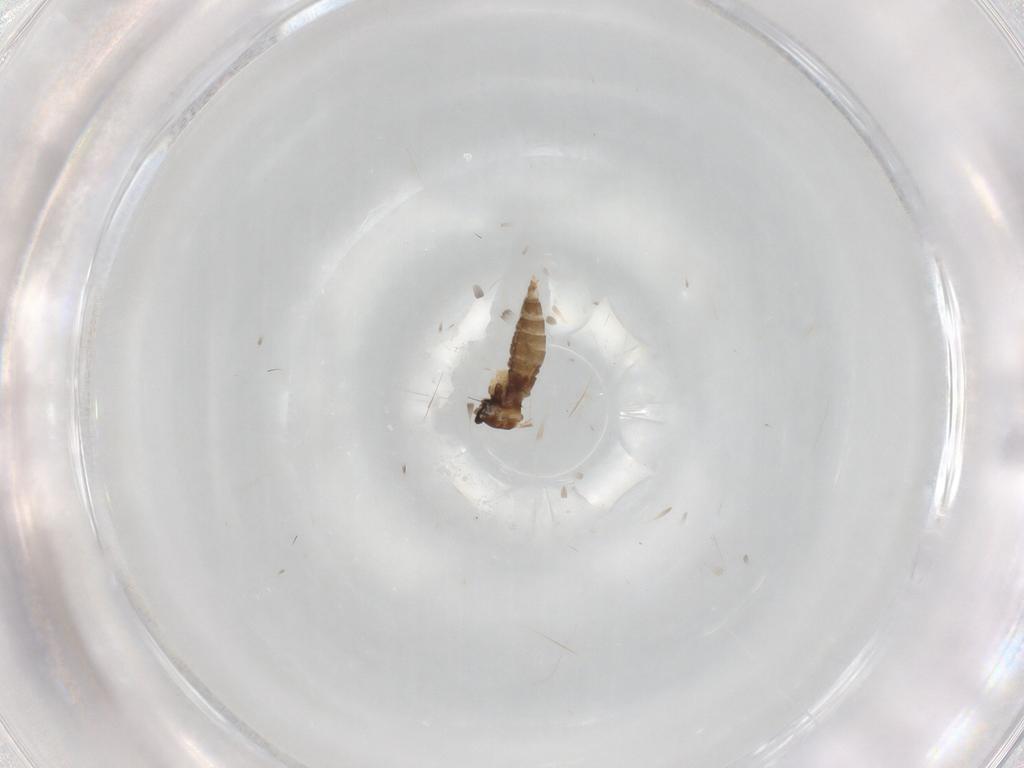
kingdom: Animalia
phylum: Arthropoda
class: Insecta
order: Diptera
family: Cecidomyiidae
